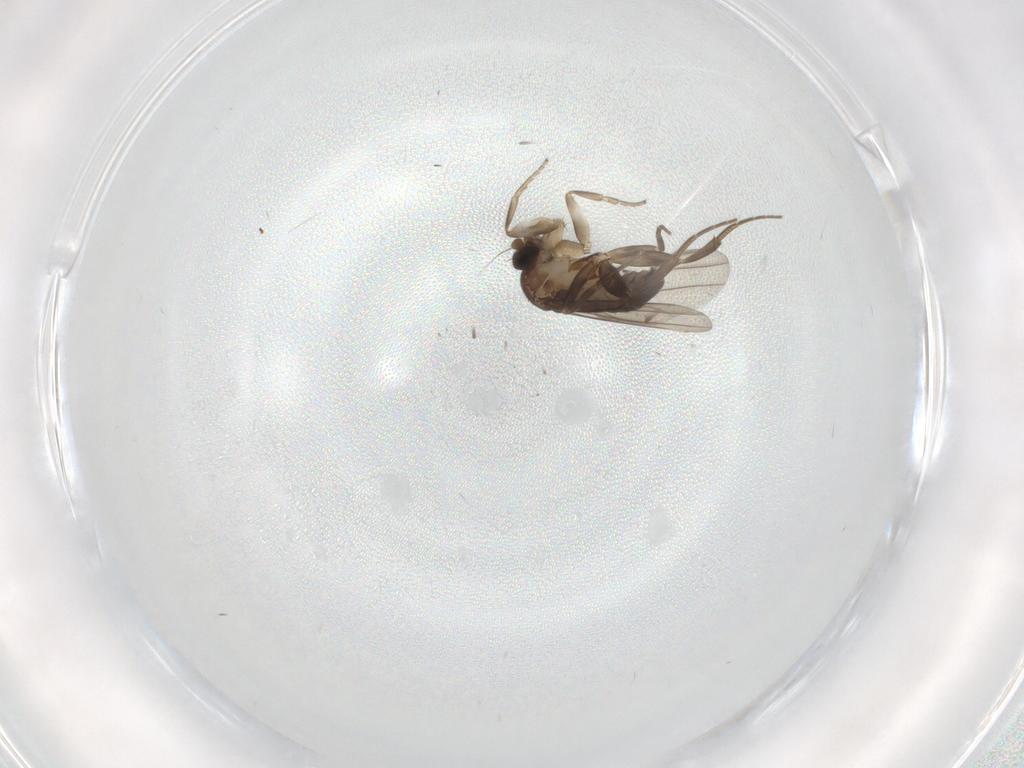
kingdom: Animalia
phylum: Arthropoda
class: Insecta
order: Diptera
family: Phoridae
